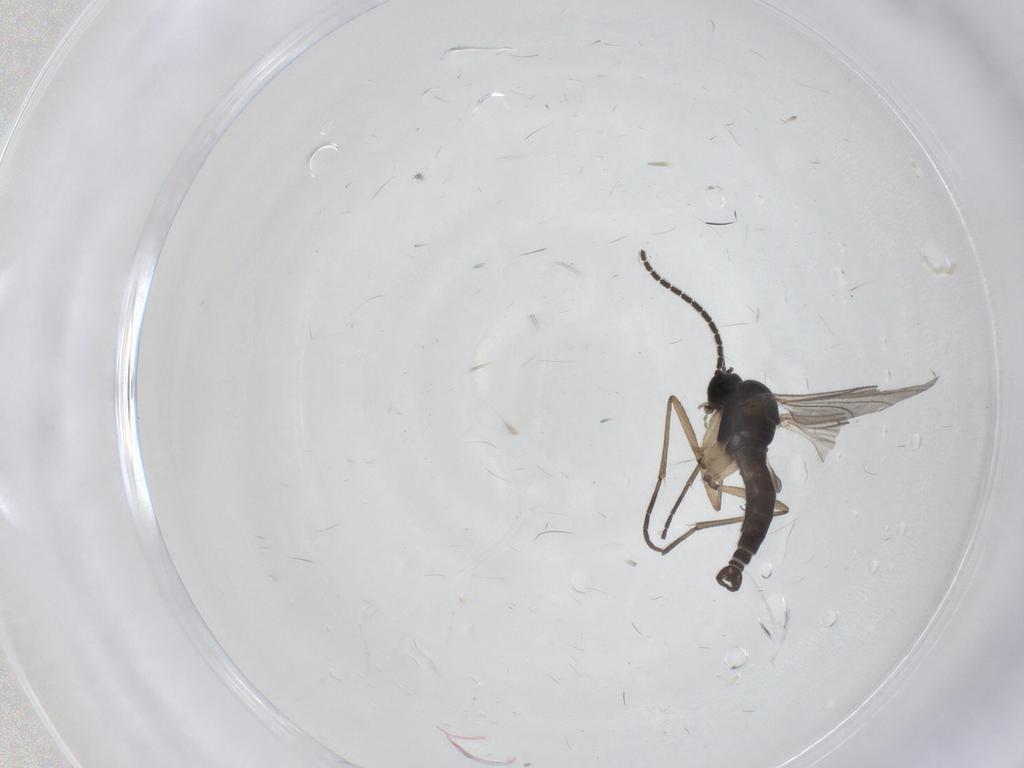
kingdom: Animalia
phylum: Arthropoda
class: Insecta
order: Diptera
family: Sciaridae
